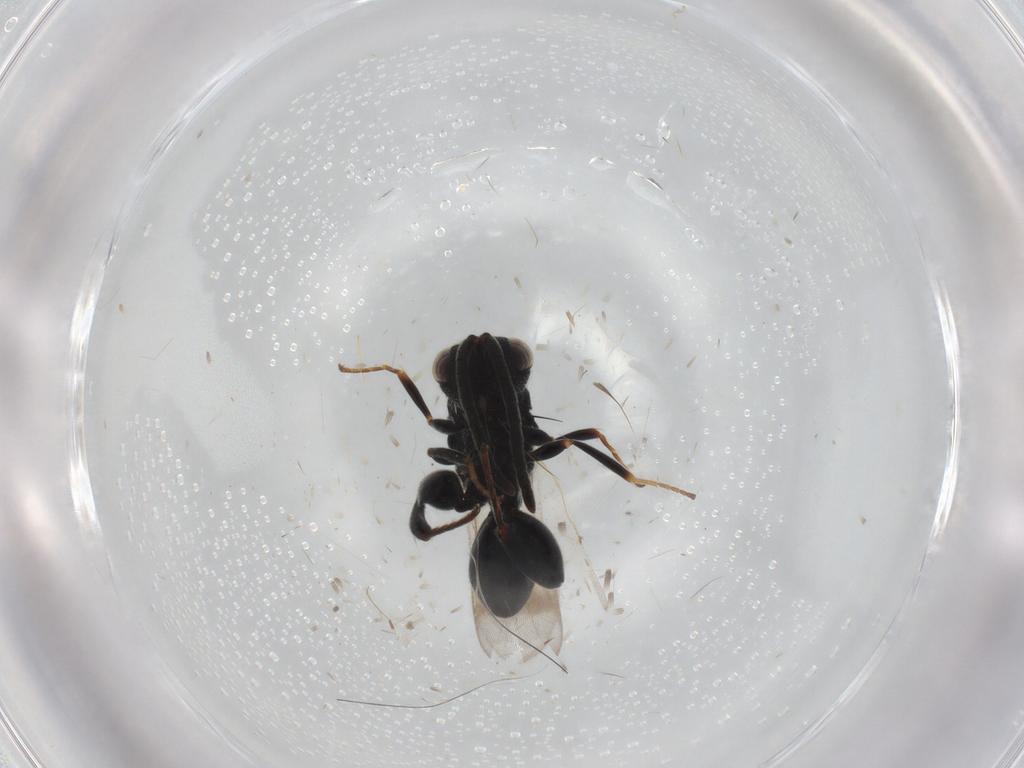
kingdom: Animalia
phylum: Arthropoda
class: Insecta
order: Hymenoptera
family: Chalcididae
